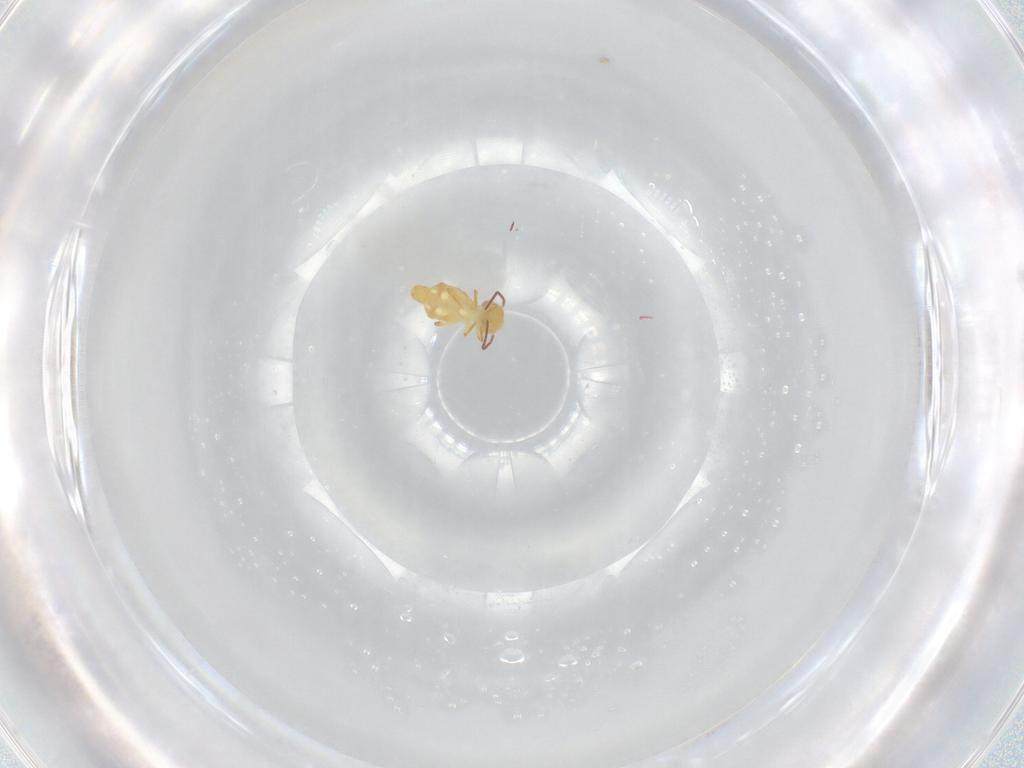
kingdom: Animalia
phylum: Arthropoda
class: Collembola
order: Symphypleona
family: Bourletiellidae
